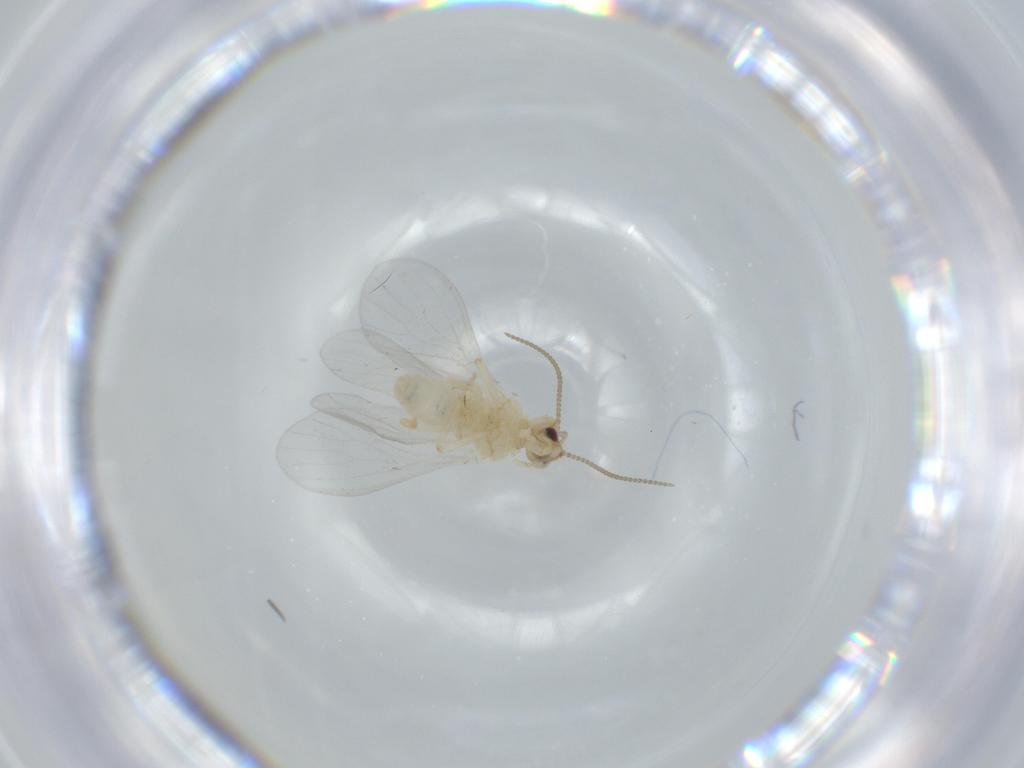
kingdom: Animalia
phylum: Arthropoda
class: Insecta
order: Neuroptera
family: Coniopterygidae
